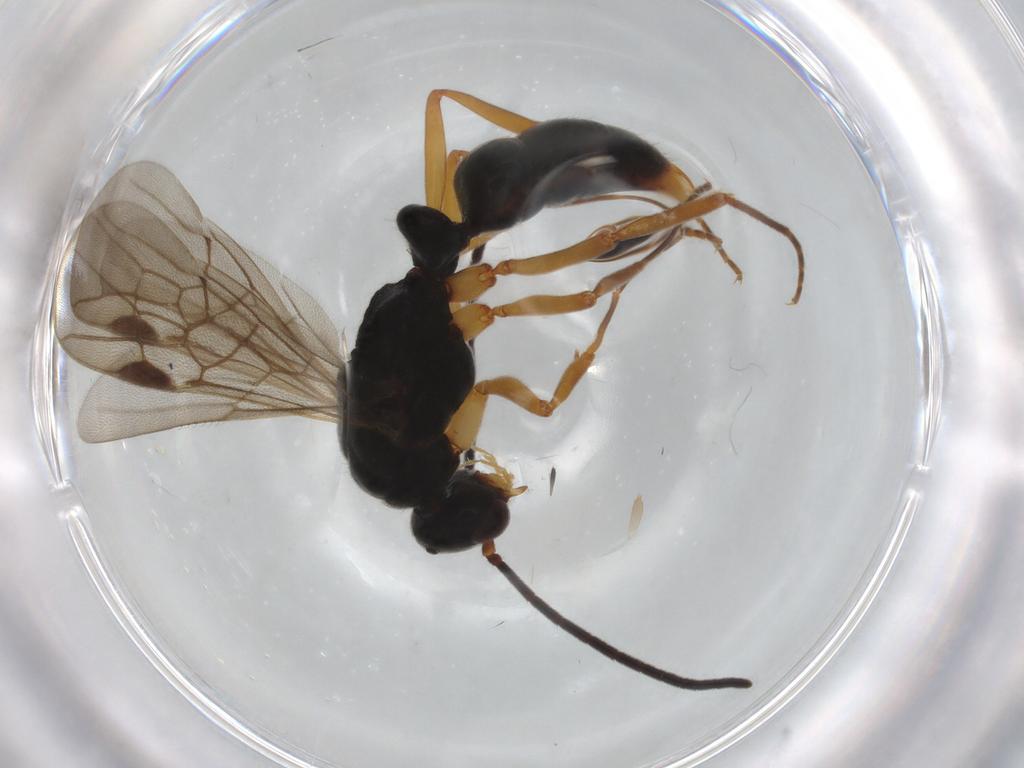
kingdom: Animalia
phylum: Arthropoda
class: Insecta
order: Hymenoptera
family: Formicidae
